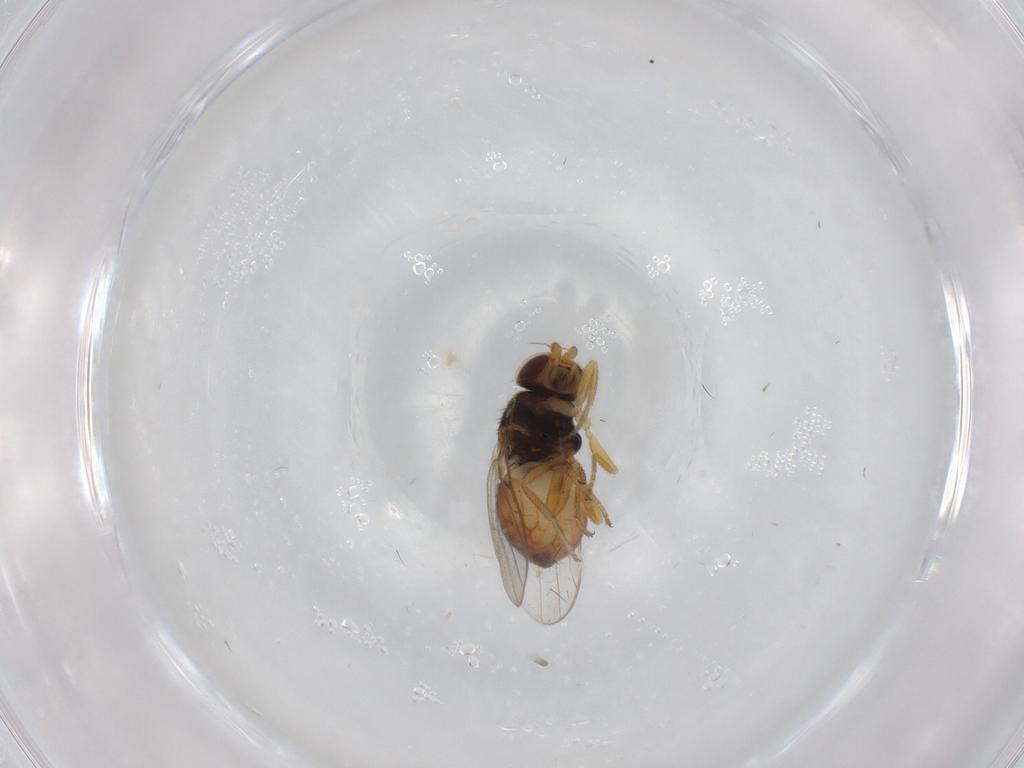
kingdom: Animalia
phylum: Arthropoda
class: Insecta
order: Diptera
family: Chloropidae
